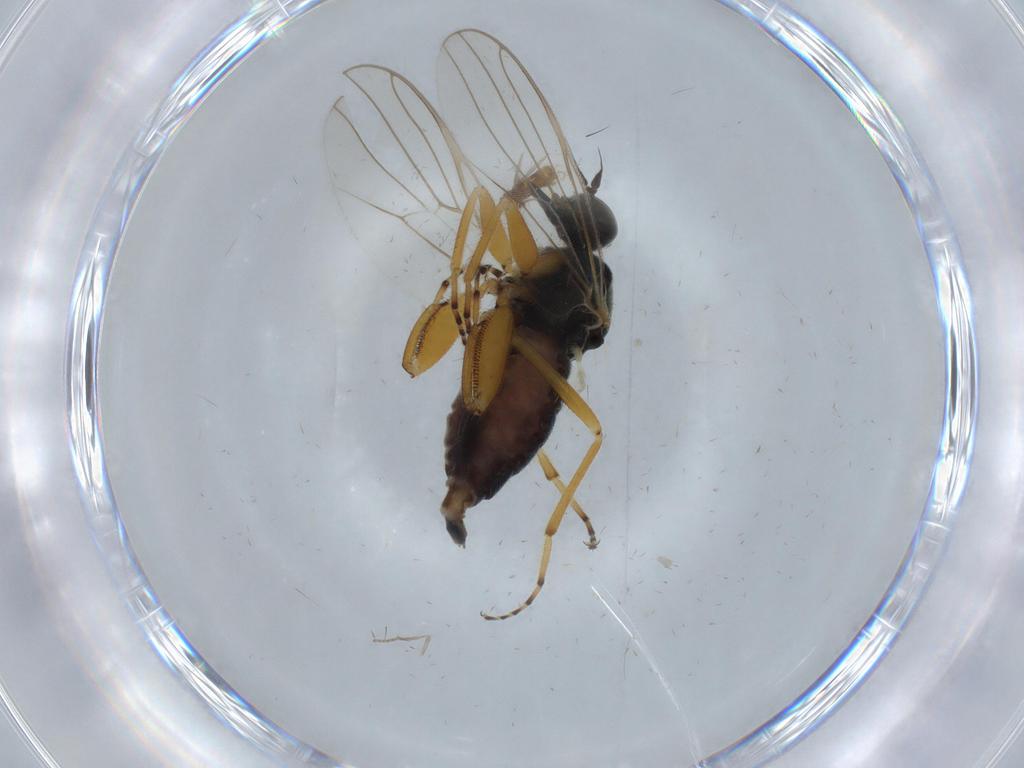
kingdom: Animalia
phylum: Arthropoda
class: Insecta
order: Diptera
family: Hybotidae
